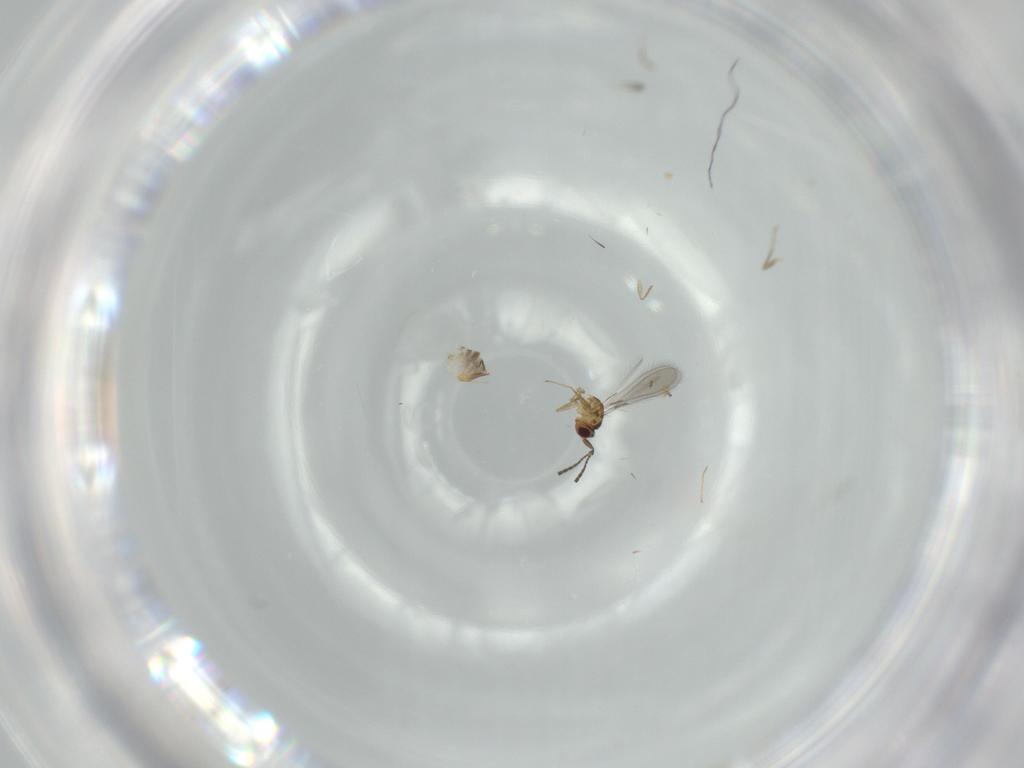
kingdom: Animalia
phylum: Arthropoda
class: Insecta
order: Hymenoptera
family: Mymaridae
